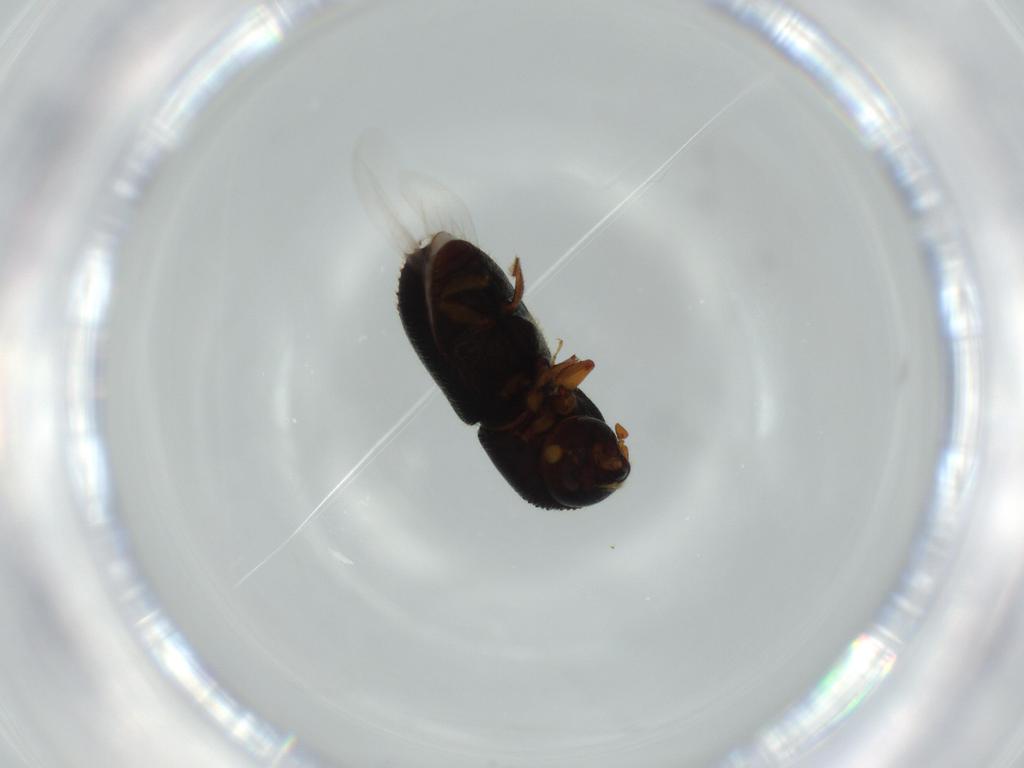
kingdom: Animalia
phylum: Arthropoda
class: Insecta
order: Coleoptera
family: Curculionidae
